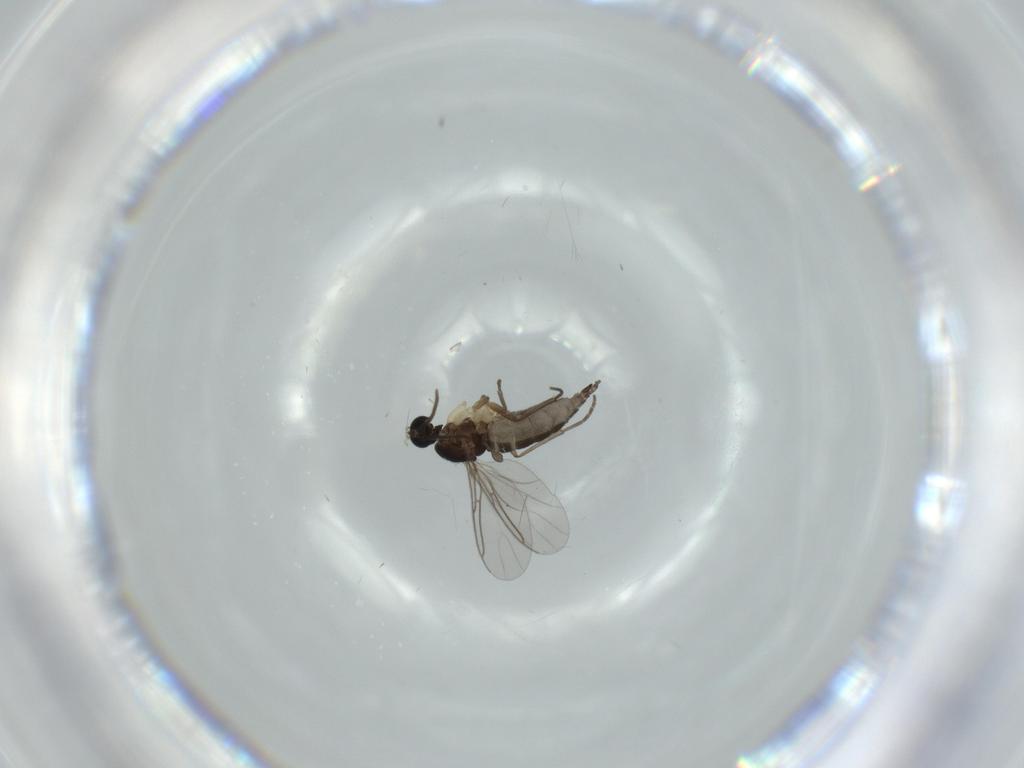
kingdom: Animalia
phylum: Arthropoda
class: Insecta
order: Diptera
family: Sciaridae
